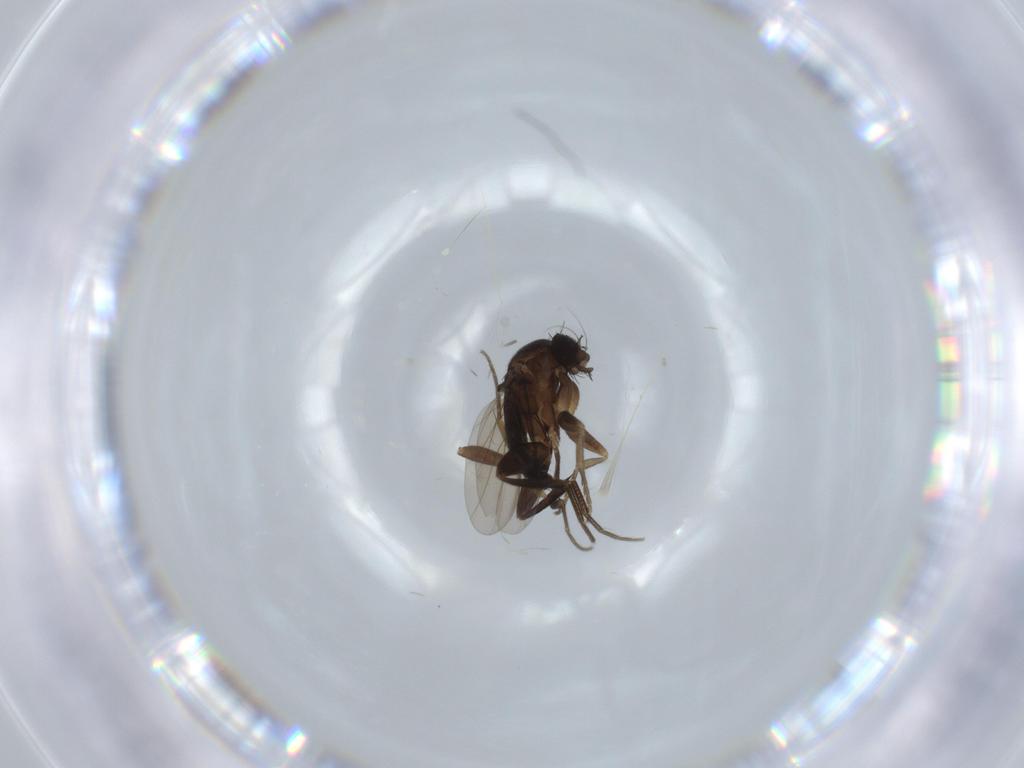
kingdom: Animalia
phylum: Arthropoda
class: Insecta
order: Diptera
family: Phoridae
